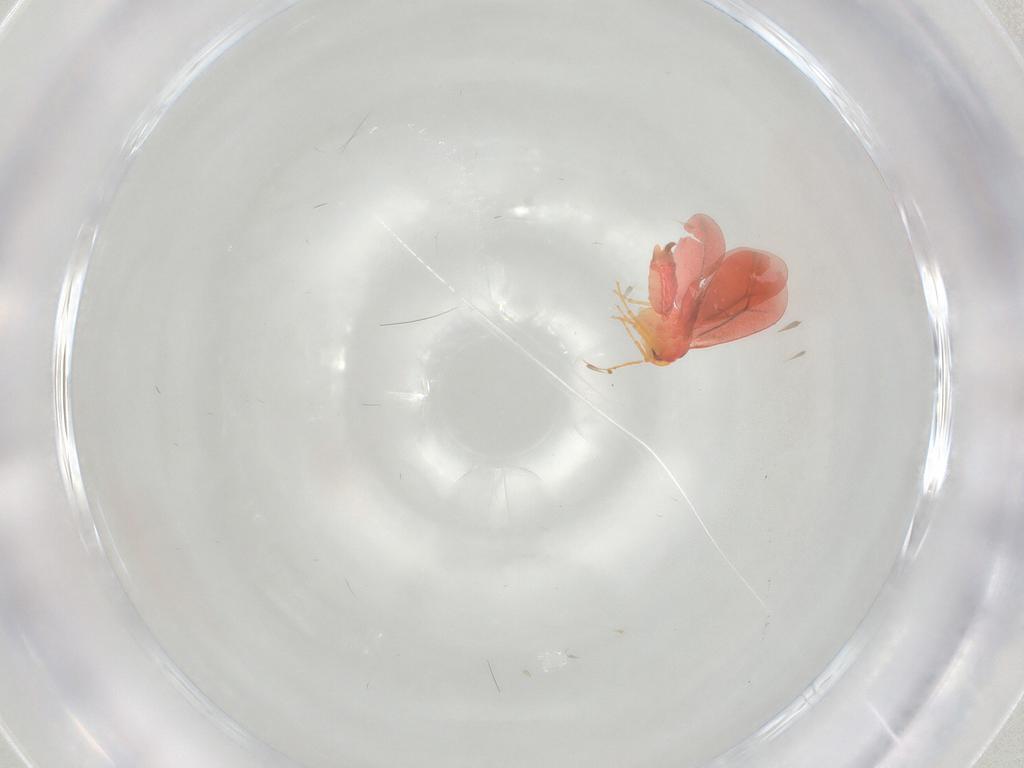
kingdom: Animalia
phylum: Arthropoda
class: Insecta
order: Hemiptera
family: Aleyrodidae
